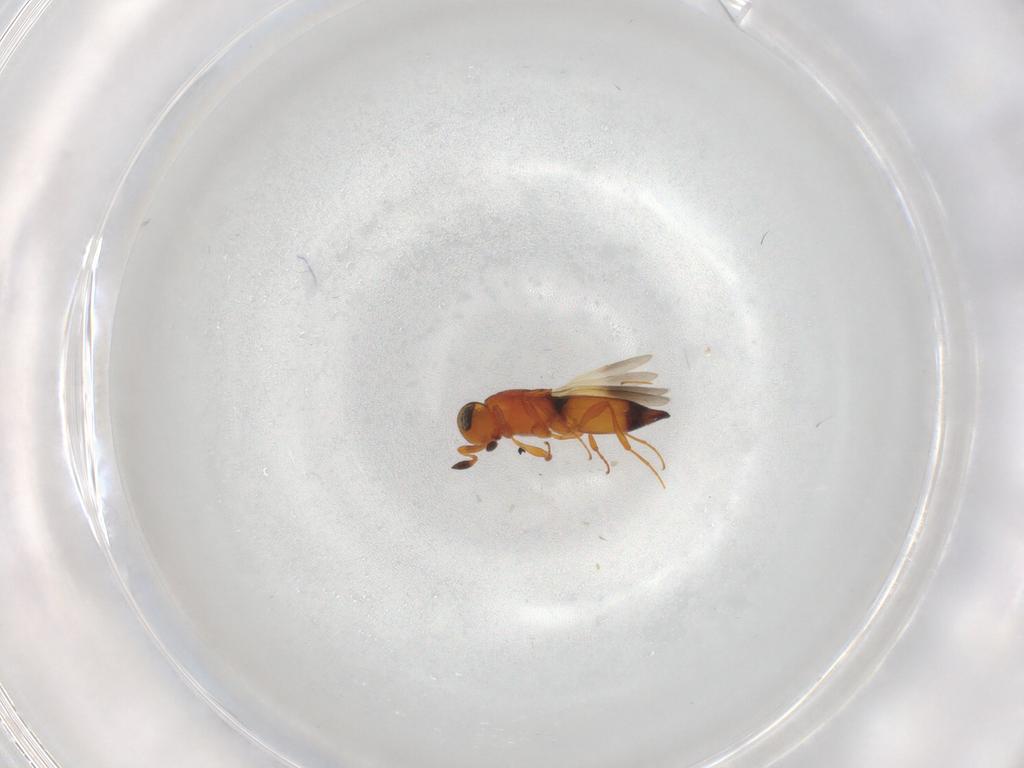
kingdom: Animalia
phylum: Arthropoda
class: Insecta
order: Hymenoptera
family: Platygastridae
